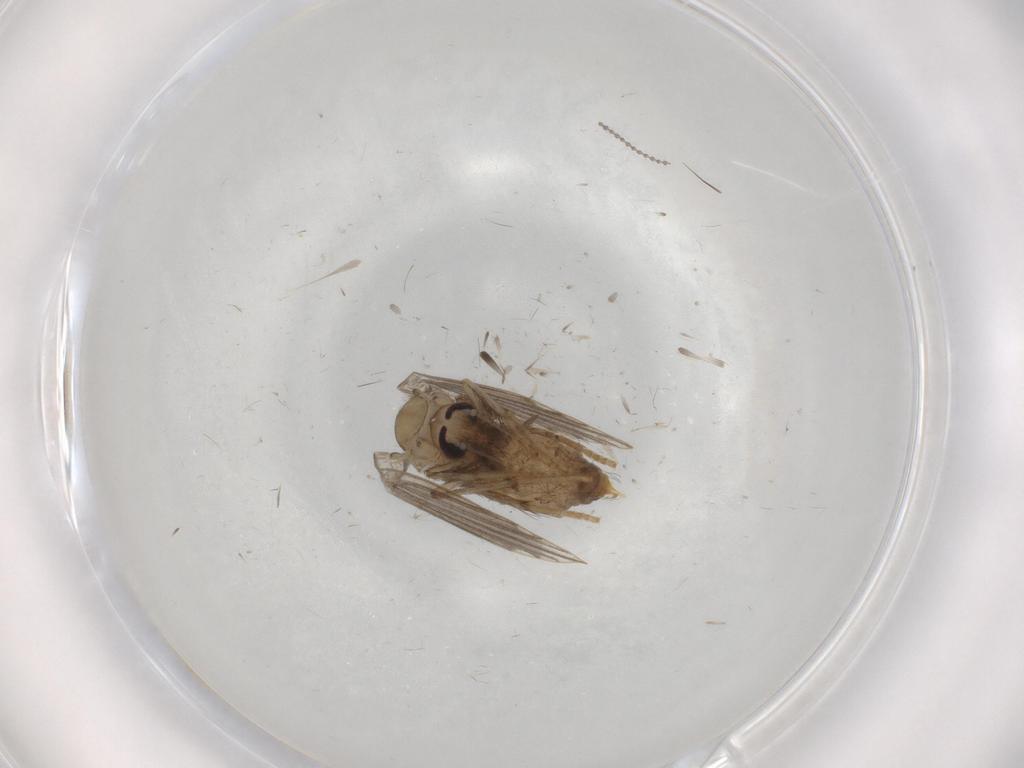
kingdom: Animalia
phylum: Arthropoda
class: Insecta
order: Diptera
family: Psychodidae
